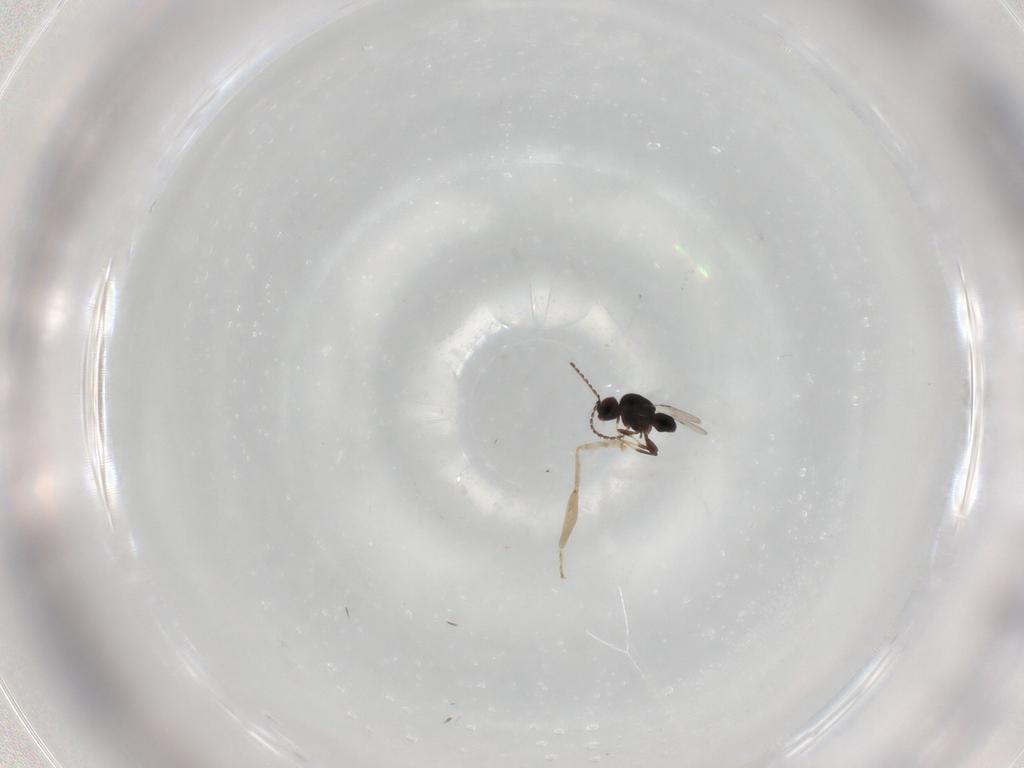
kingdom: Animalia
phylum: Arthropoda
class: Insecta
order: Hymenoptera
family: Ceraphronidae
